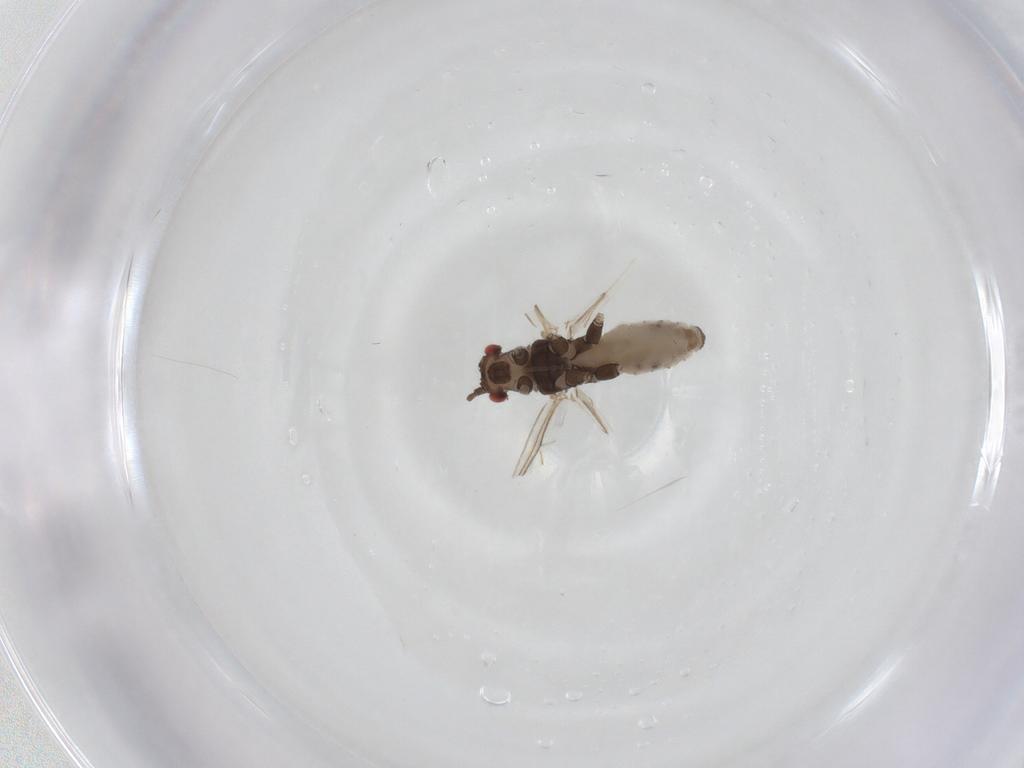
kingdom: Animalia
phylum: Arthropoda
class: Insecta
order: Hemiptera
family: Aphididae
